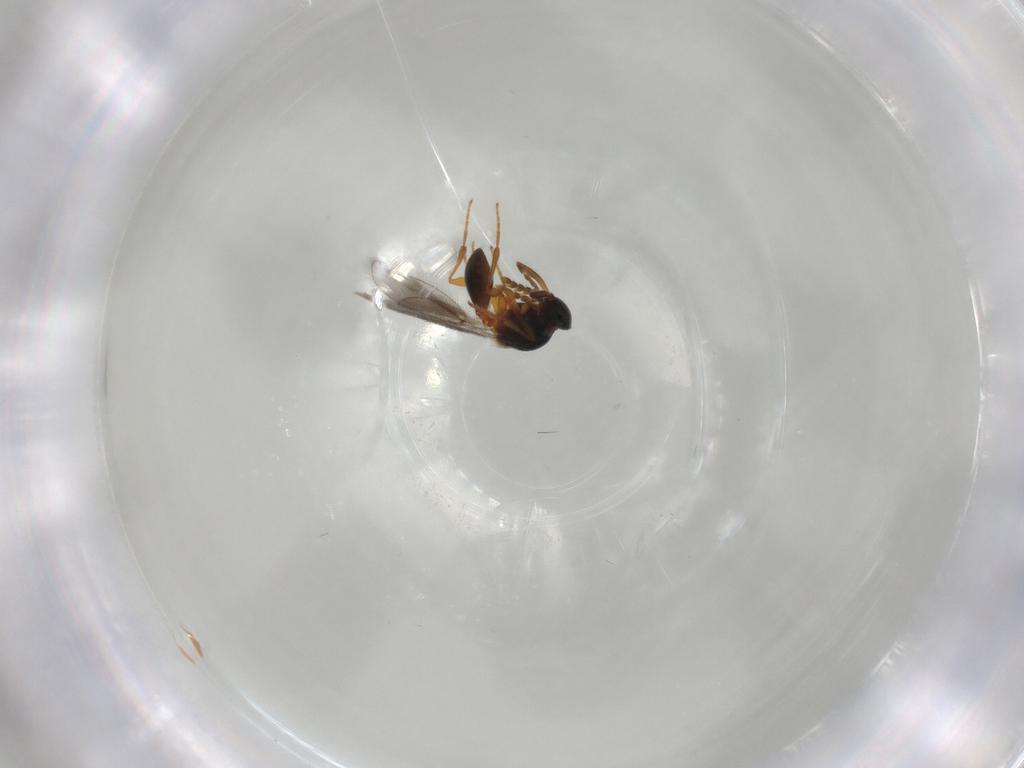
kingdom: Animalia
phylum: Arthropoda
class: Insecta
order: Hymenoptera
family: Platygastridae
